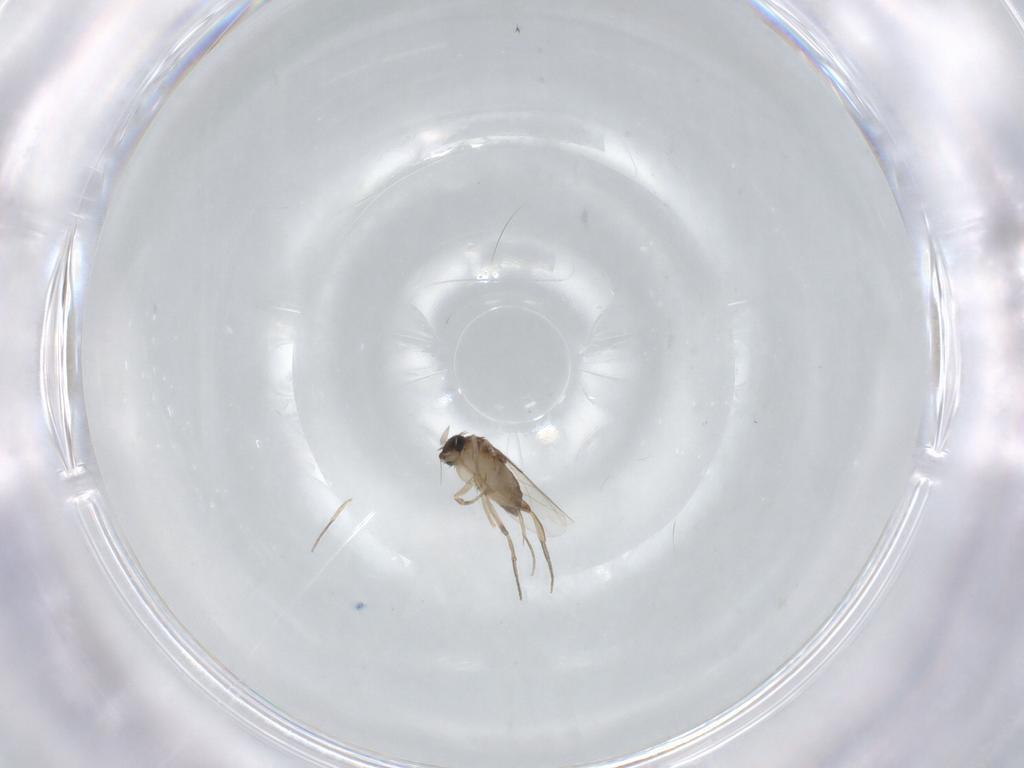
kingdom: Animalia
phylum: Arthropoda
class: Insecta
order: Diptera
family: Phoridae
